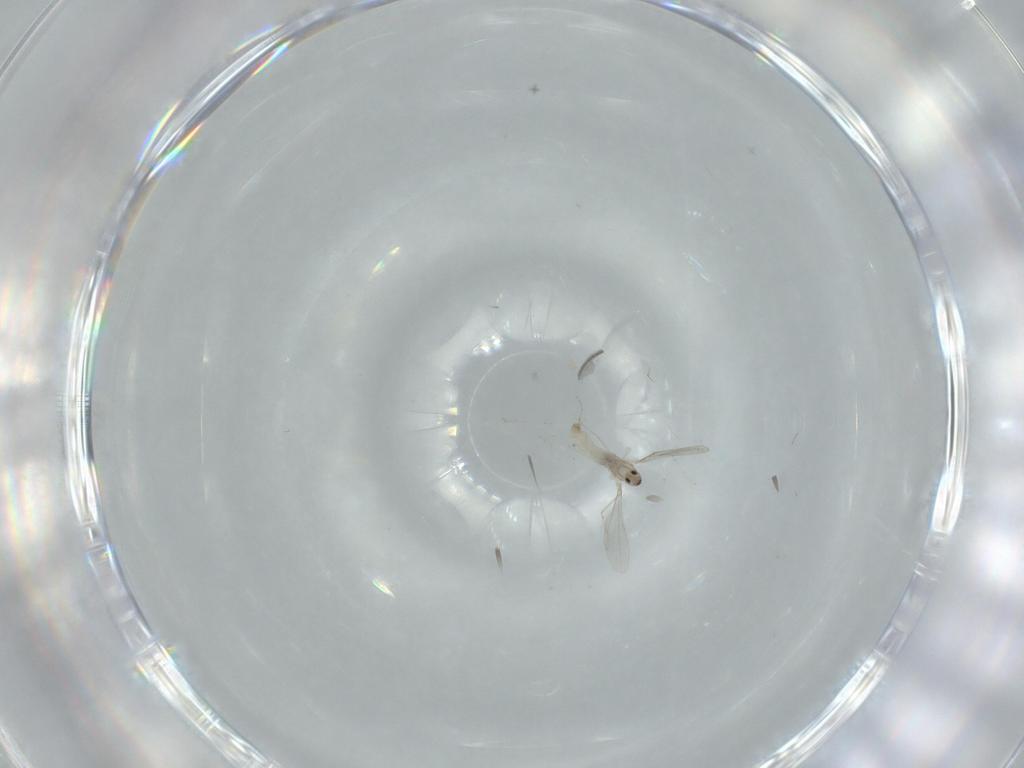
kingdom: Animalia
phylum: Arthropoda
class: Insecta
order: Diptera
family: Cecidomyiidae
